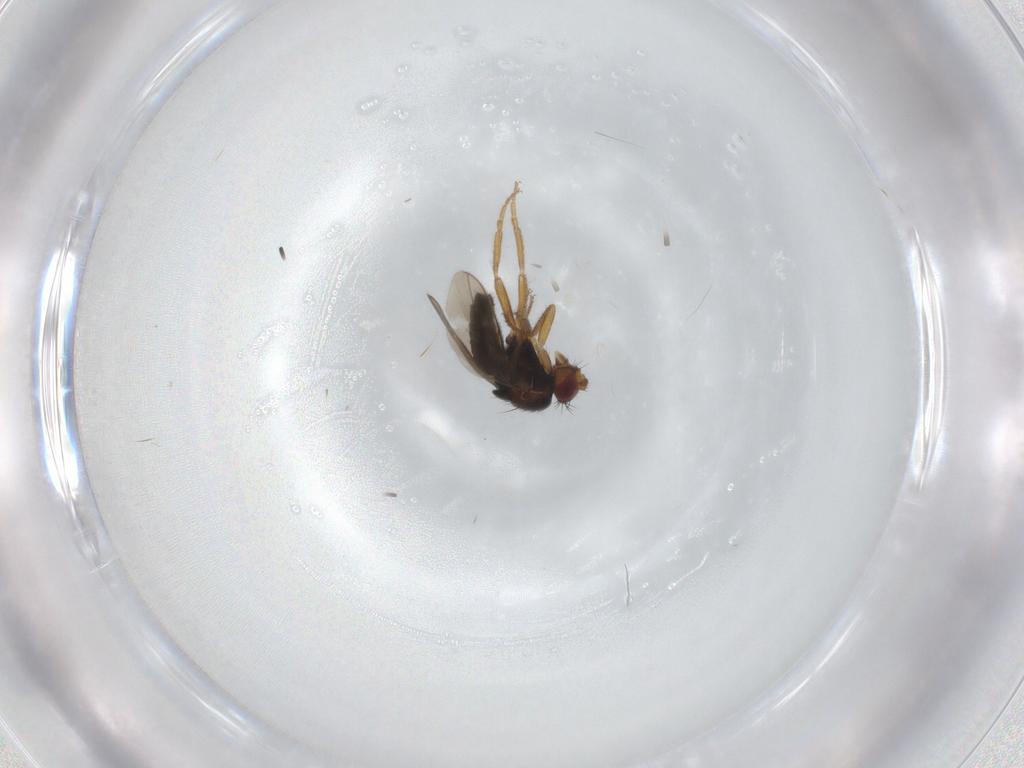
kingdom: Animalia
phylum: Arthropoda
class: Insecta
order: Diptera
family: Sphaeroceridae
